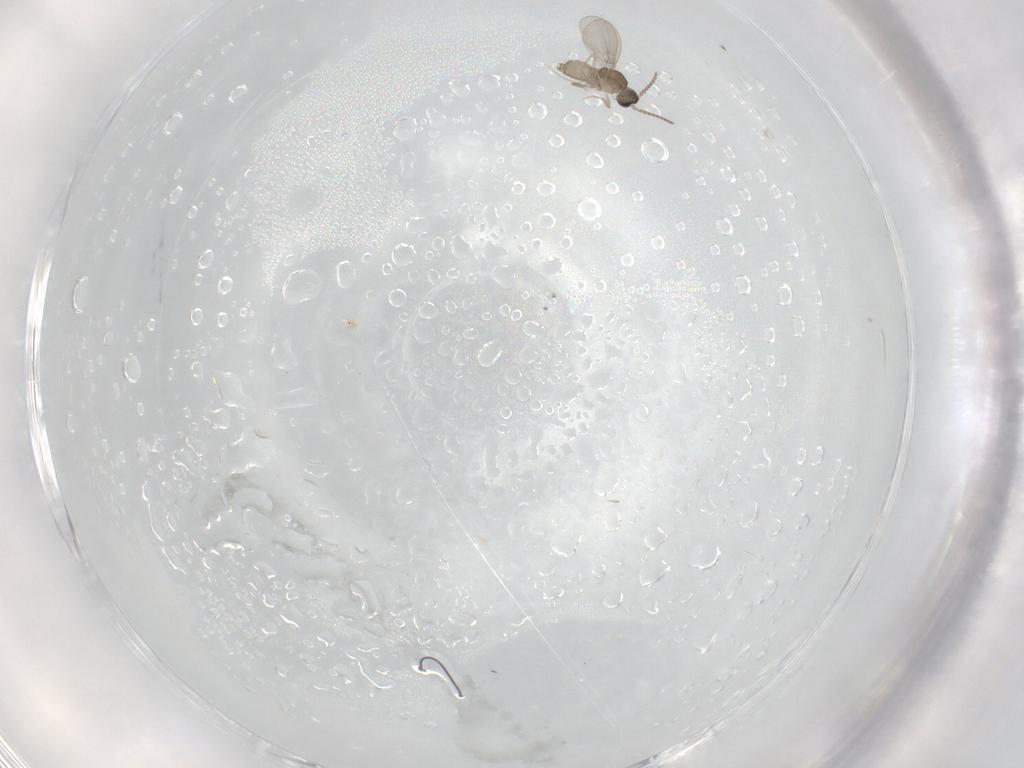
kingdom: Animalia
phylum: Arthropoda
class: Insecta
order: Diptera
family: Cecidomyiidae
